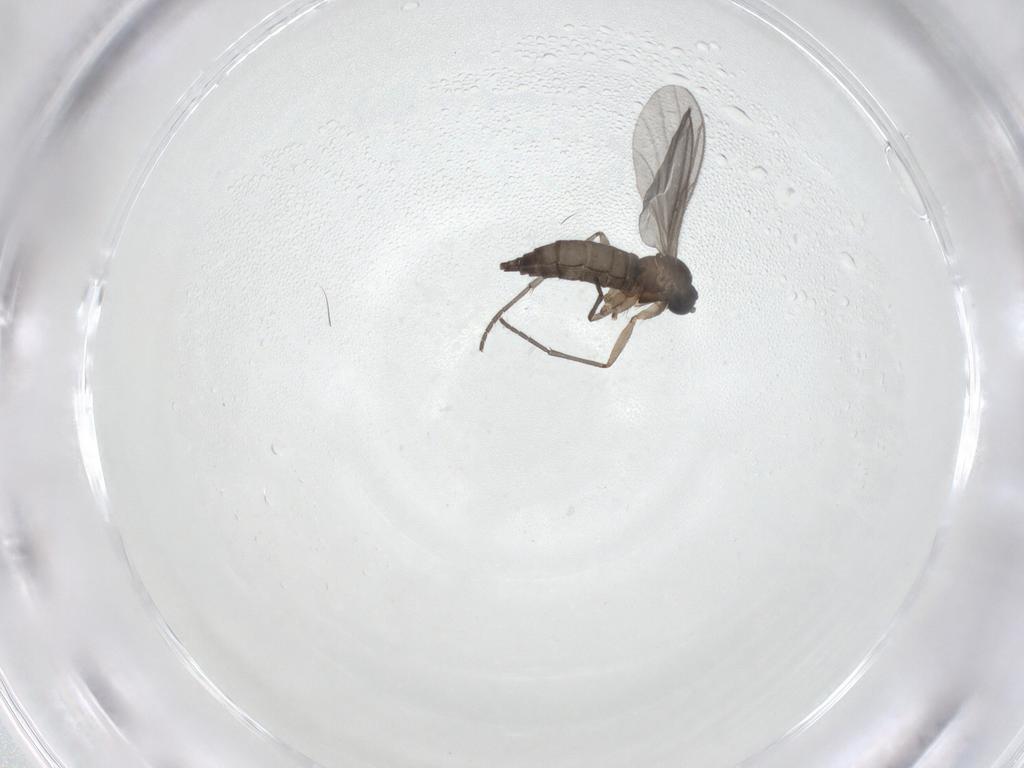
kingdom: Animalia
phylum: Arthropoda
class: Insecta
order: Diptera
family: Sciaridae
